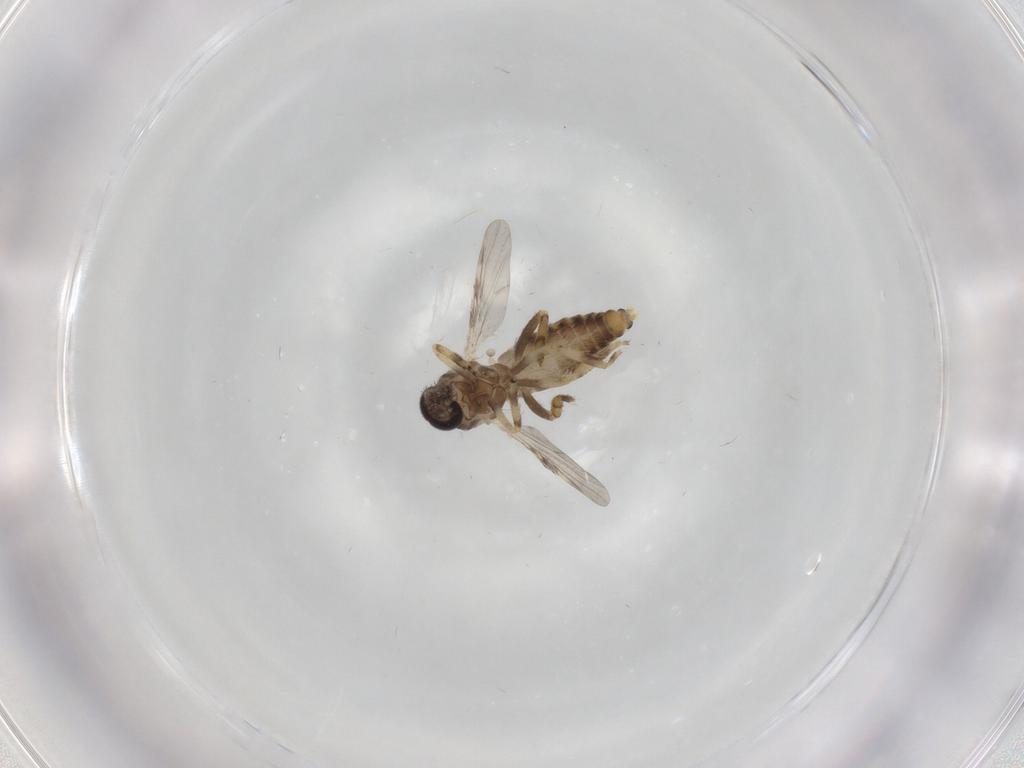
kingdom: Animalia
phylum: Arthropoda
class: Insecta
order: Diptera
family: Ceratopogonidae
